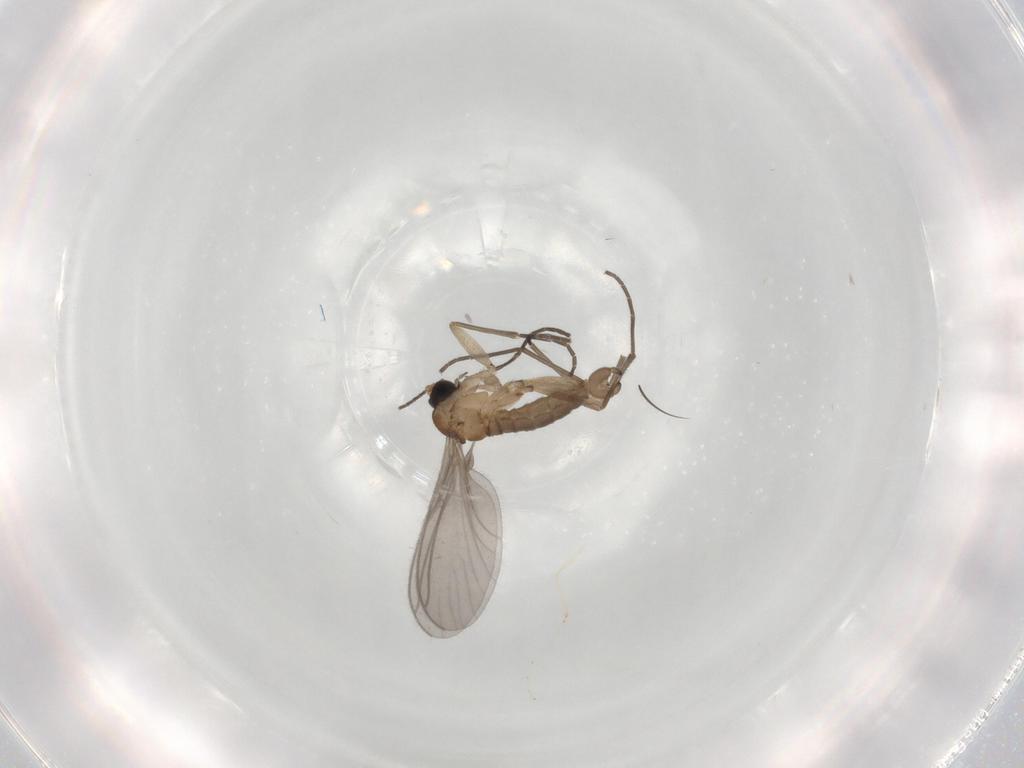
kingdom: Animalia
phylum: Arthropoda
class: Insecta
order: Diptera
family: Sciaridae
